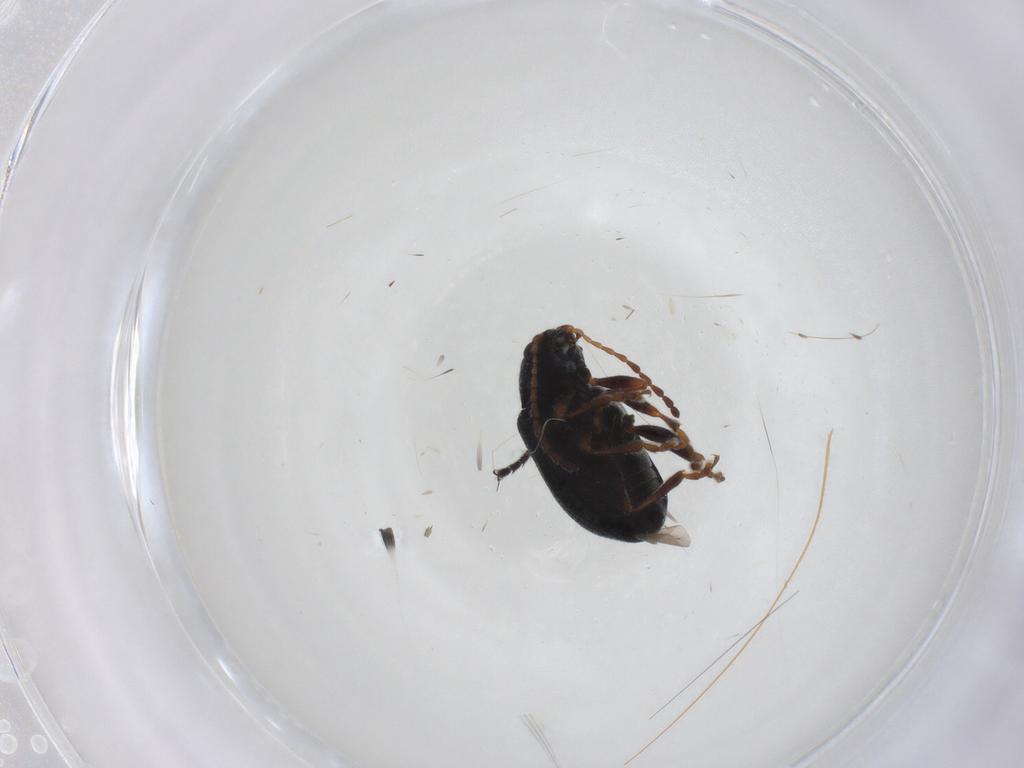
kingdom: Animalia
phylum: Arthropoda
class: Insecta
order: Coleoptera
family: Chrysomelidae
